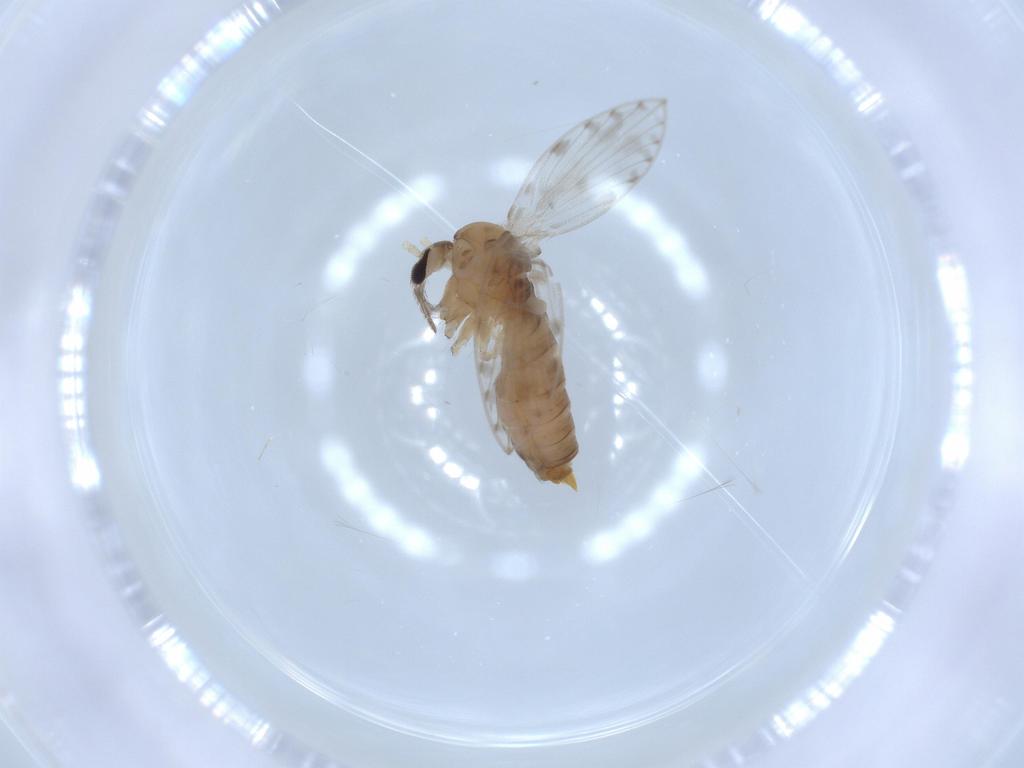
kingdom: Animalia
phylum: Arthropoda
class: Insecta
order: Diptera
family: Psychodidae
